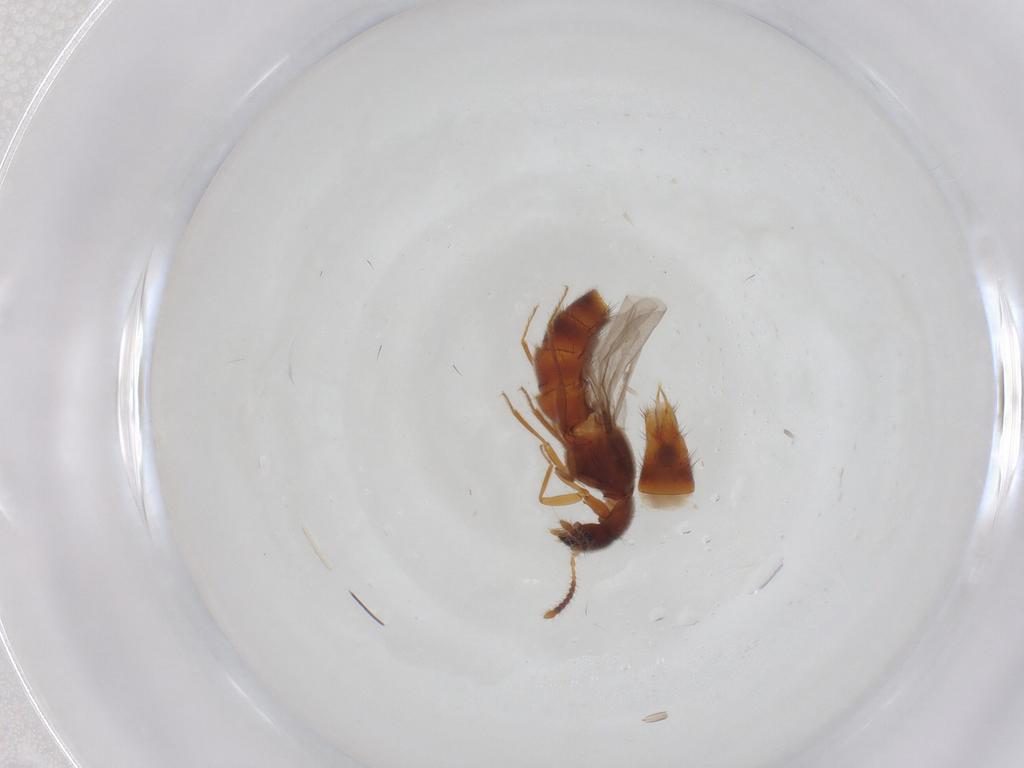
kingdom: Animalia
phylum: Arthropoda
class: Insecta
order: Coleoptera
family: Staphylinidae
